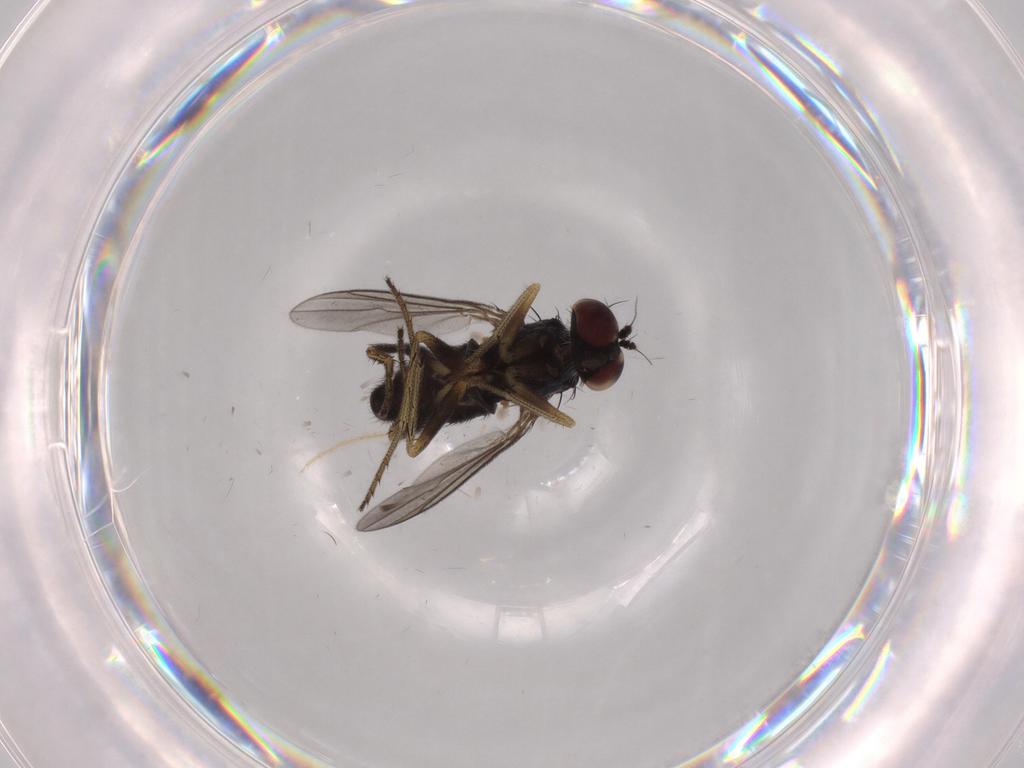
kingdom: Animalia
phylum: Arthropoda
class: Insecta
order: Diptera
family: Dolichopodidae
